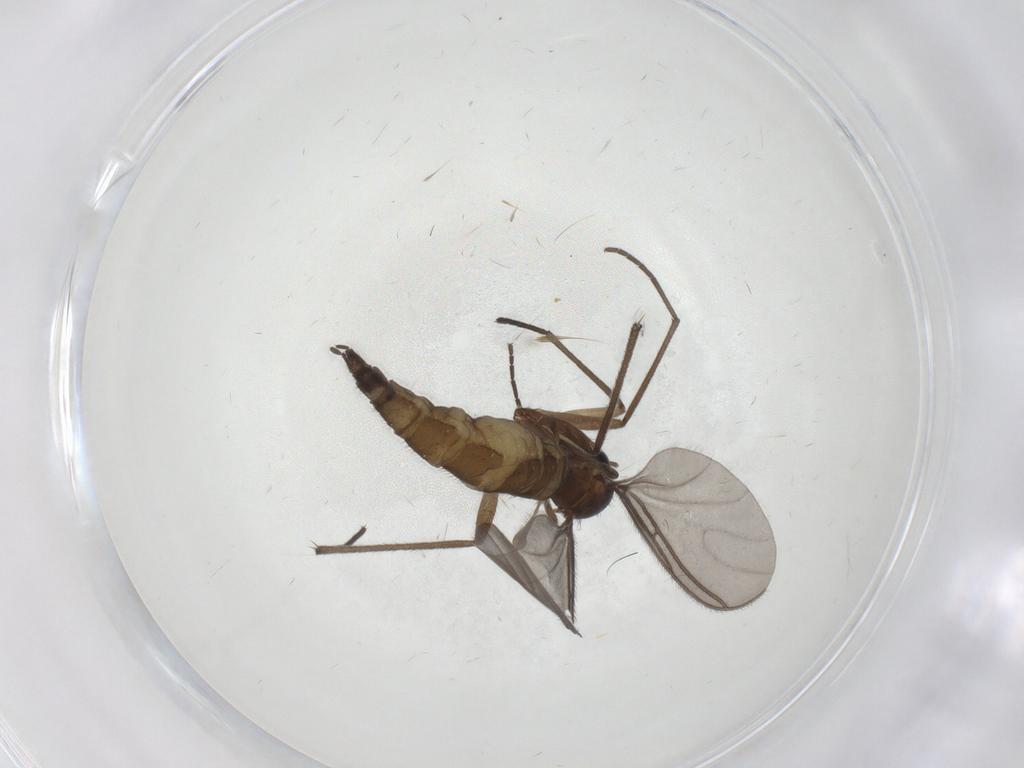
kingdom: Animalia
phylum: Arthropoda
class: Insecta
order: Diptera
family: Sciaridae
